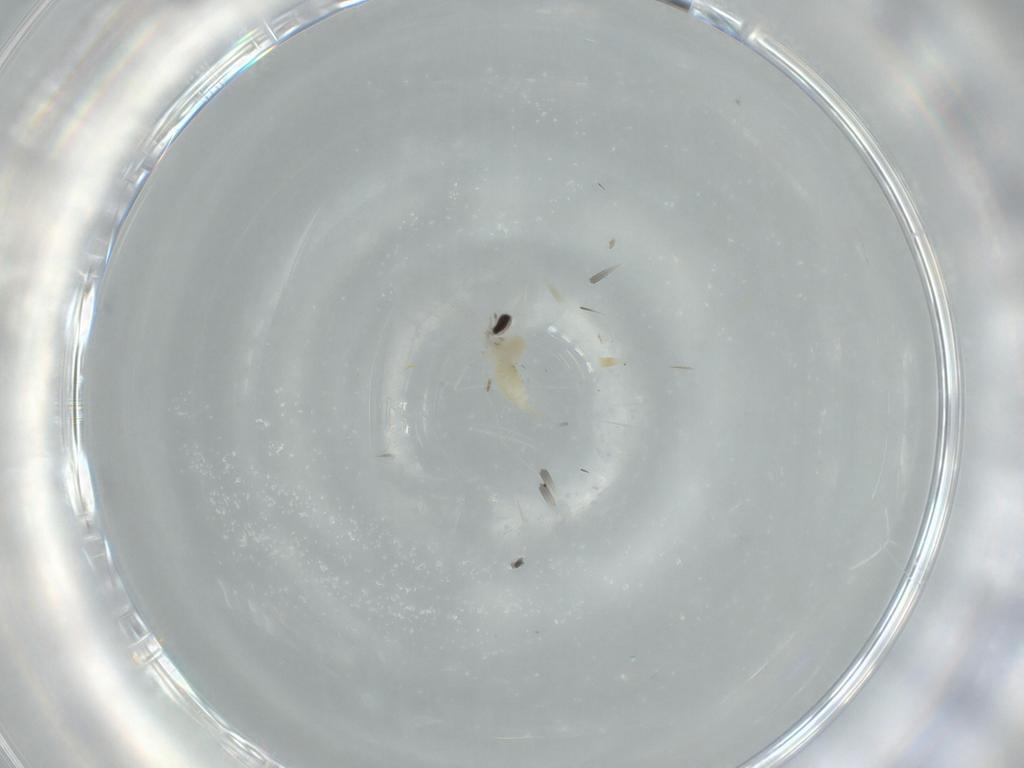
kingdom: Animalia
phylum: Arthropoda
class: Insecta
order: Diptera
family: Cecidomyiidae
